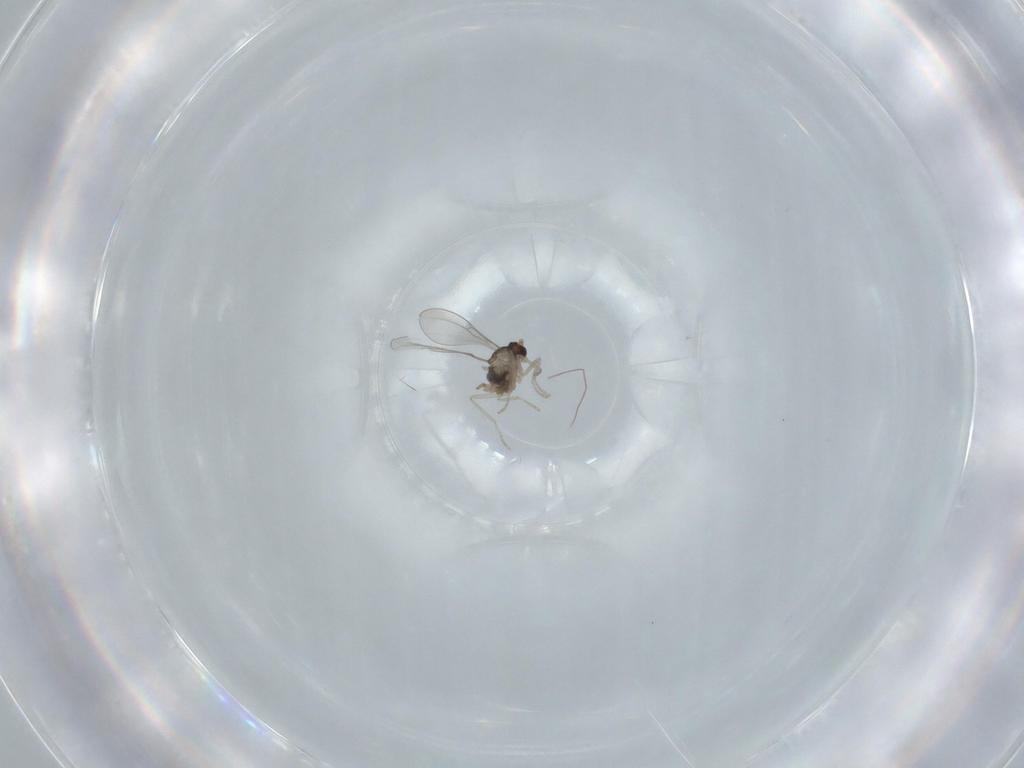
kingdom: Animalia
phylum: Arthropoda
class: Insecta
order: Diptera
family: Cecidomyiidae
